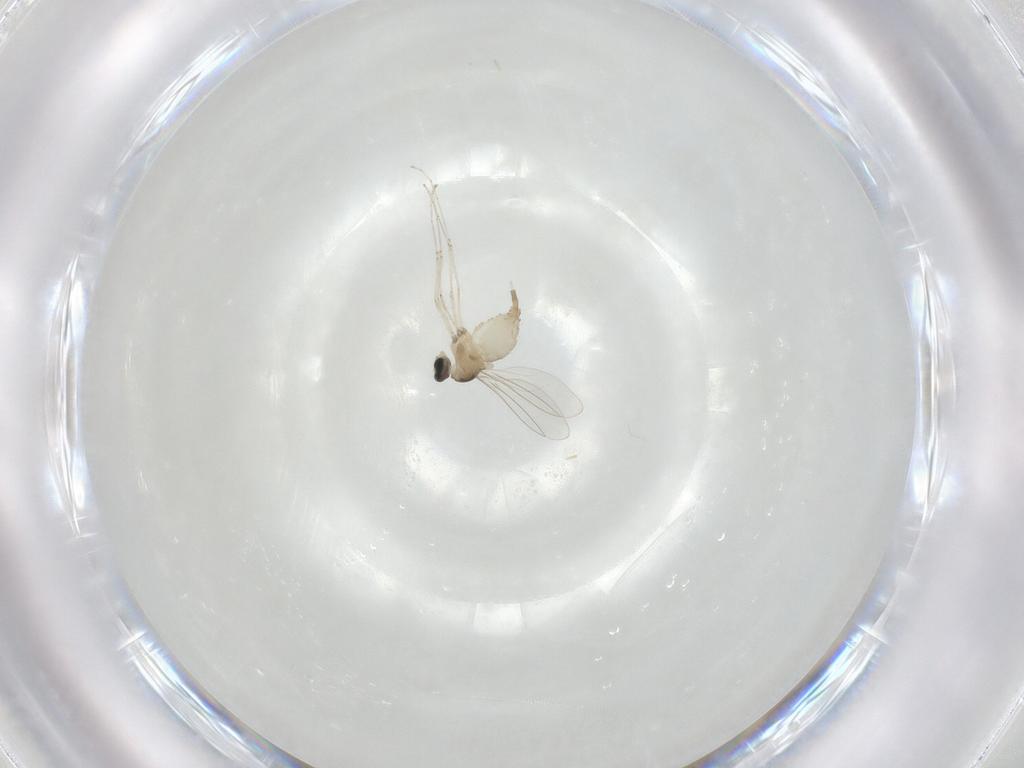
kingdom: Animalia
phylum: Arthropoda
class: Insecta
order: Diptera
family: Cecidomyiidae
